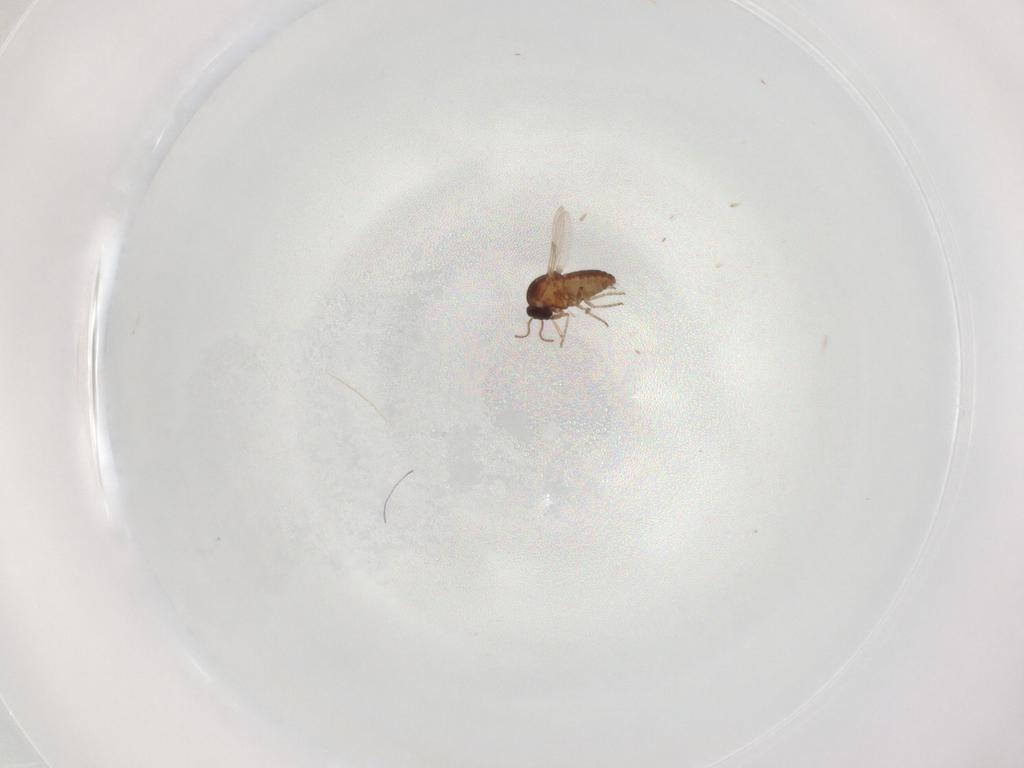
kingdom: Animalia
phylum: Arthropoda
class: Insecta
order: Diptera
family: Ceratopogonidae
